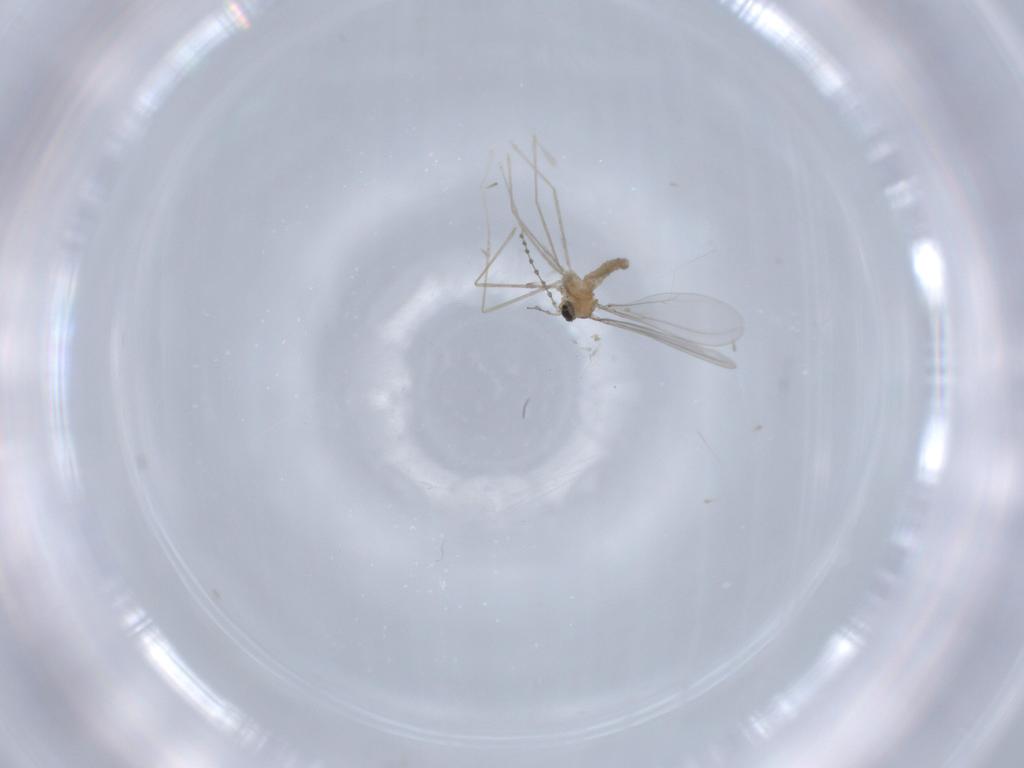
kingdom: Animalia
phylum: Arthropoda
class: Insecta
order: Diptera
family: Cecidomyiidae
